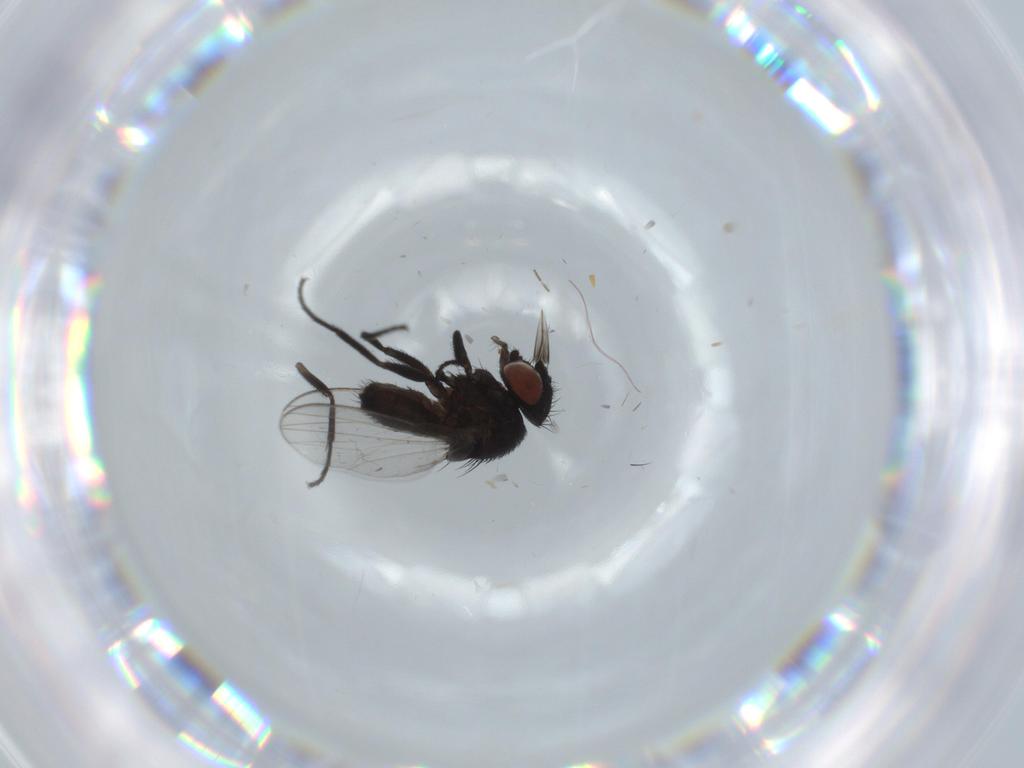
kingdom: Animalia
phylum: Arthropoda
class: Insecta
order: Diptera
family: Milichiidae
